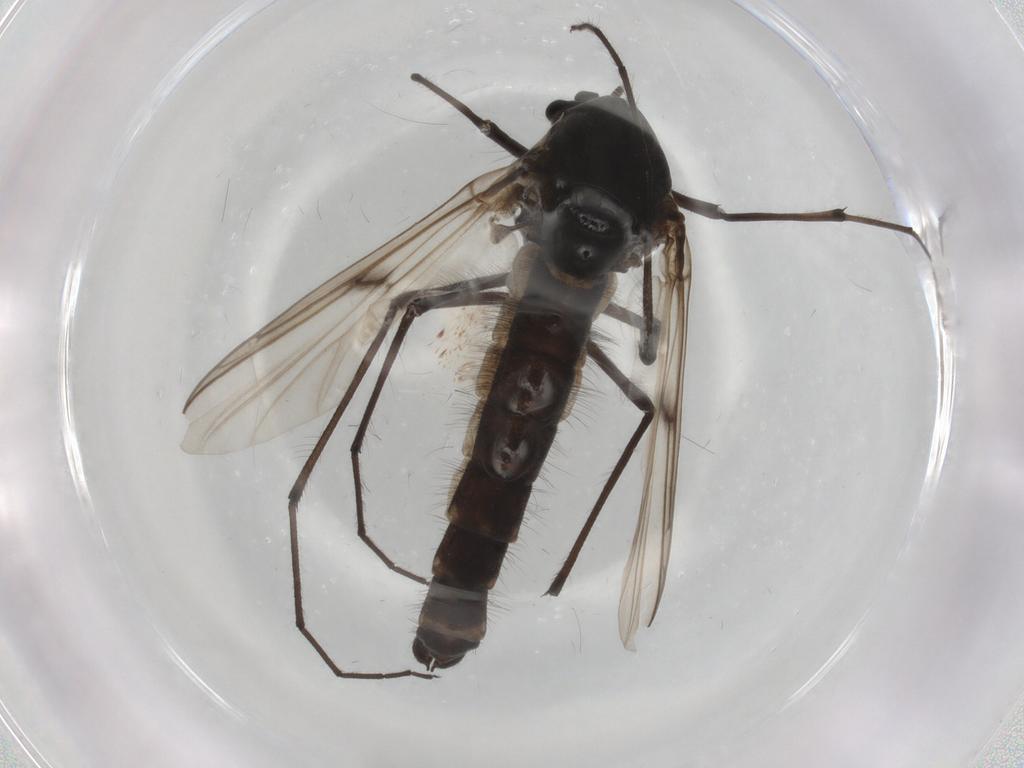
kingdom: Animalia
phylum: Arthropoda
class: Insecta
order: Diptera
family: Chironomidae
